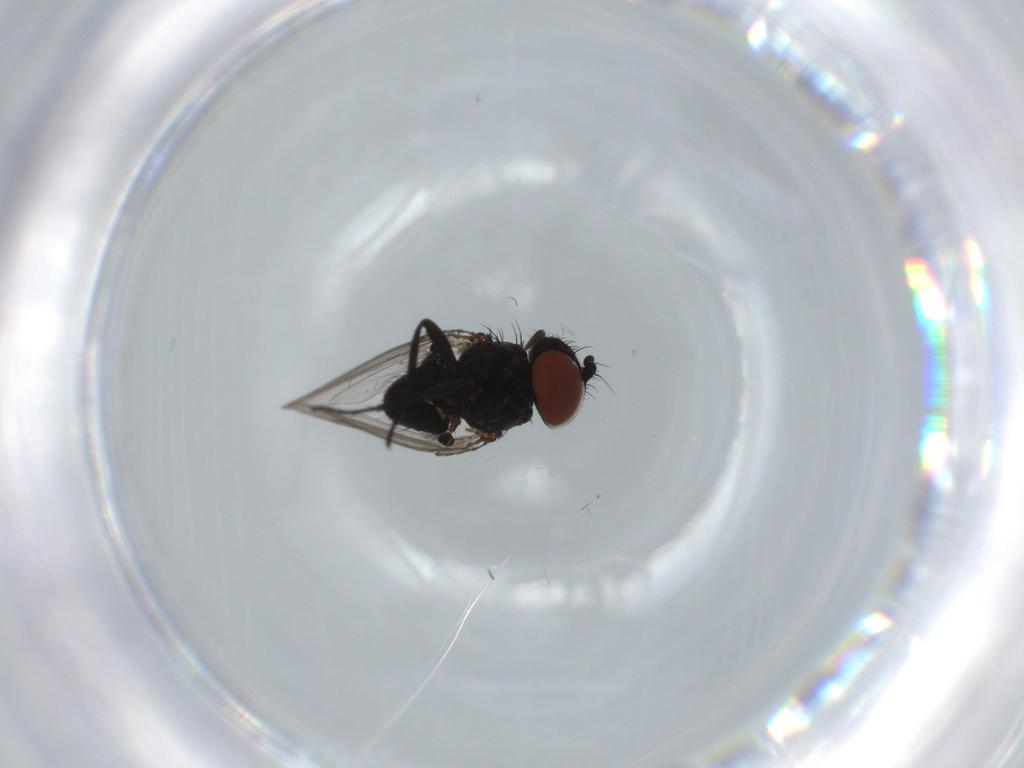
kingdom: Animalia
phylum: Arthropoda
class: Insecta
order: Diptera
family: Milichiidae
